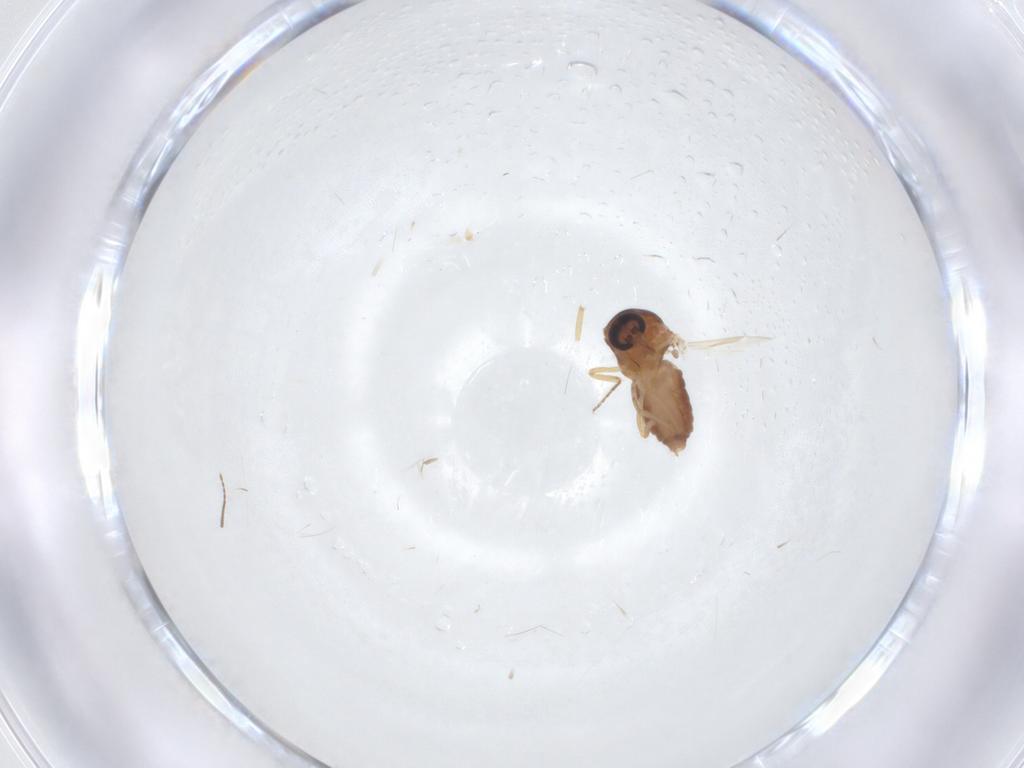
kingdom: Animalia
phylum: Arthropoda
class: Insecta
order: Diptera
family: Ceratopogonidae
